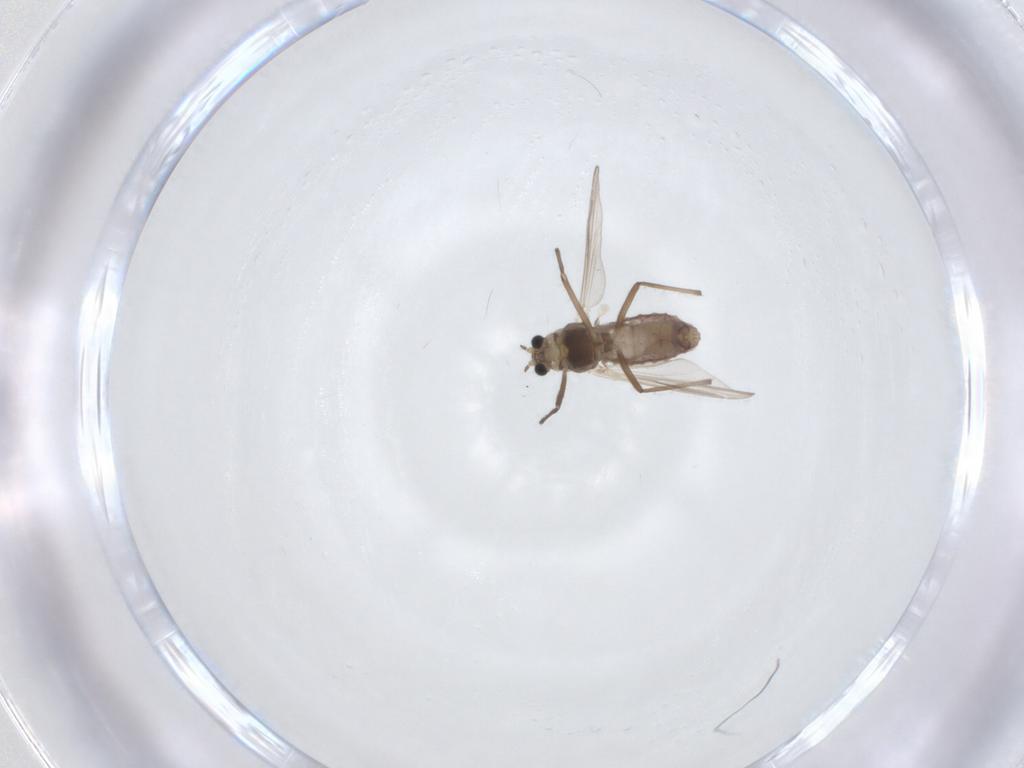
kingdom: Animalia
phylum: Arthropoda
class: Insecta
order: Diptera
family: Chironomidae
